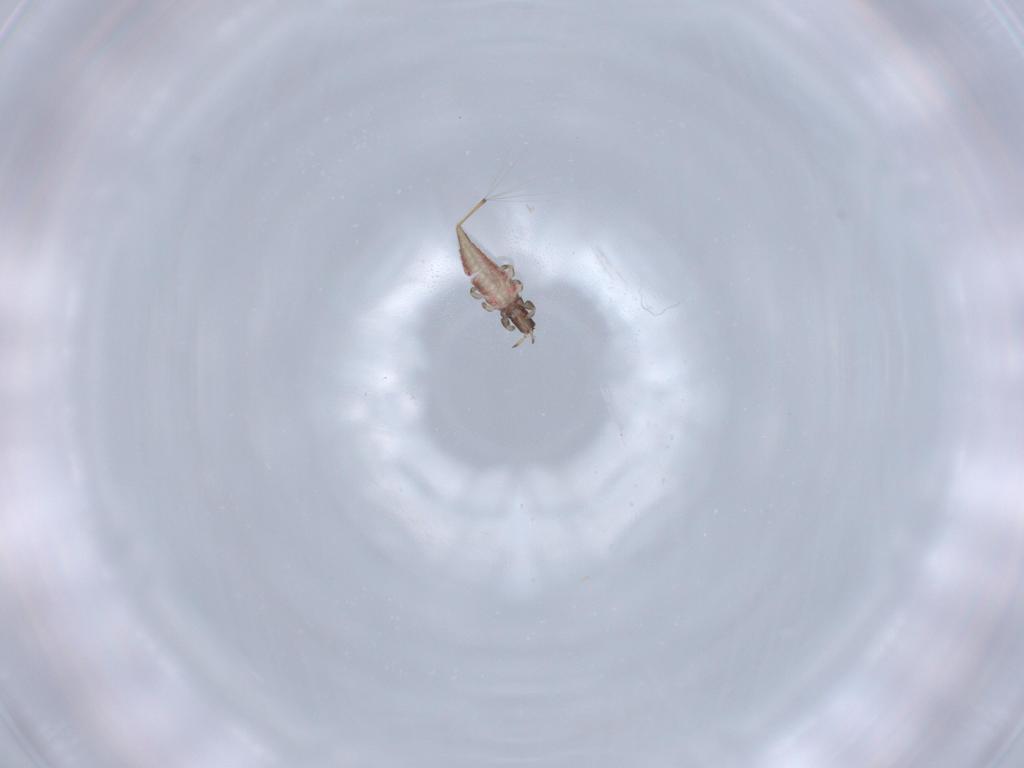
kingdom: Animalia
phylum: Arthropoda
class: Insecta
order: Thysanoptera
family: Phlaeothripidae
